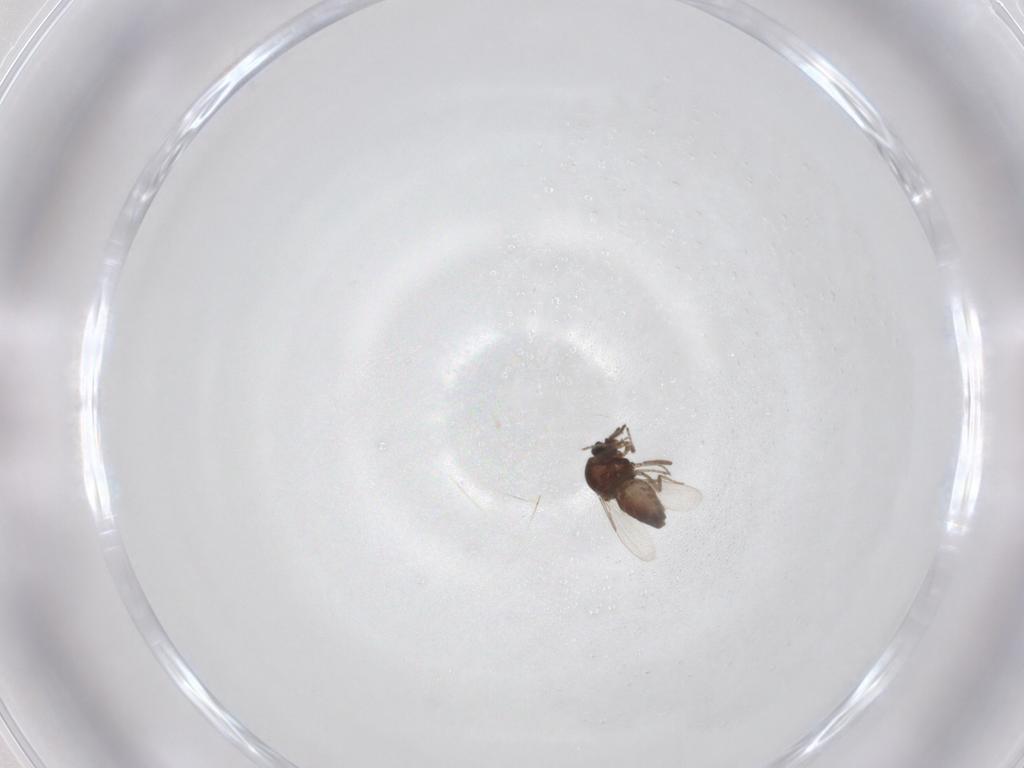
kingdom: Animalia
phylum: Arthropoda
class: Insecta
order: Diptera
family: Ceratopogonidae
